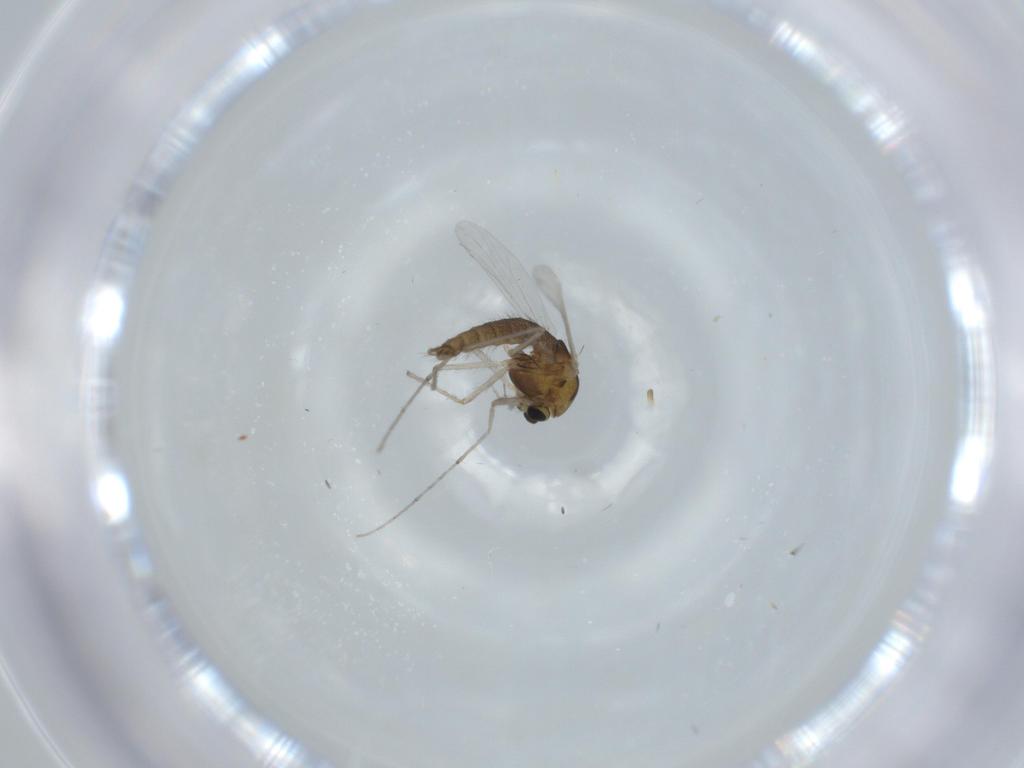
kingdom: Animalia
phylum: Arthropoda
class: Insecta
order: Diptera
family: Chironomidae
